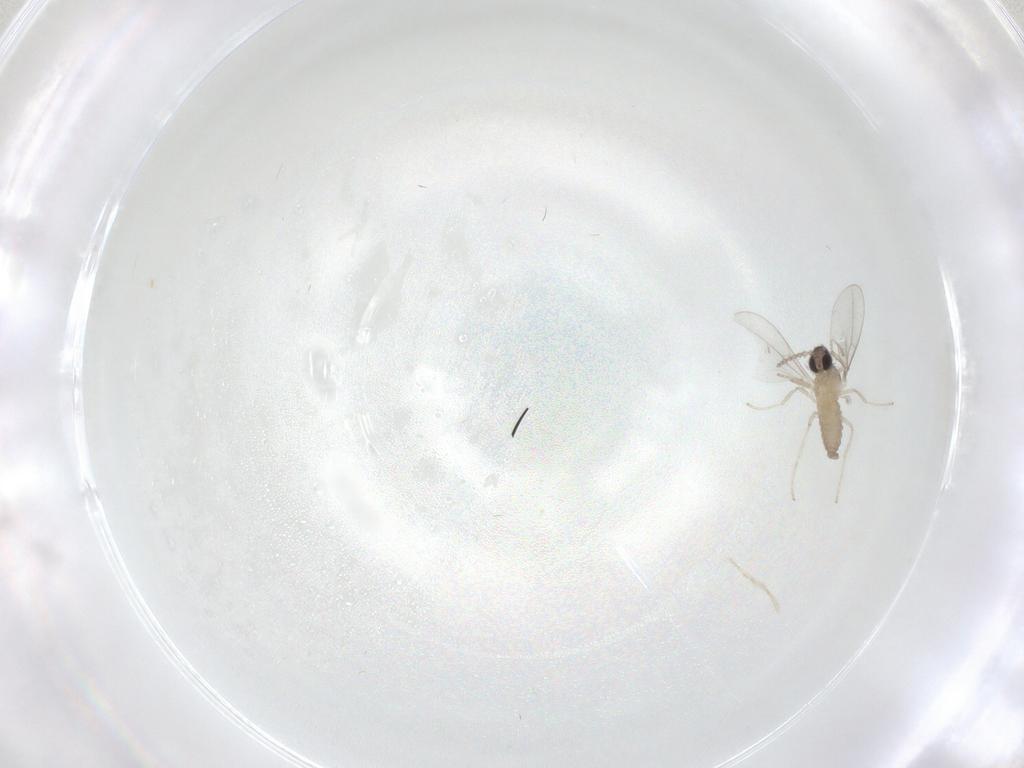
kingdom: Animalia
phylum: Arthropoda
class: Insecta
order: Diptera
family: Cecidomyiidae
